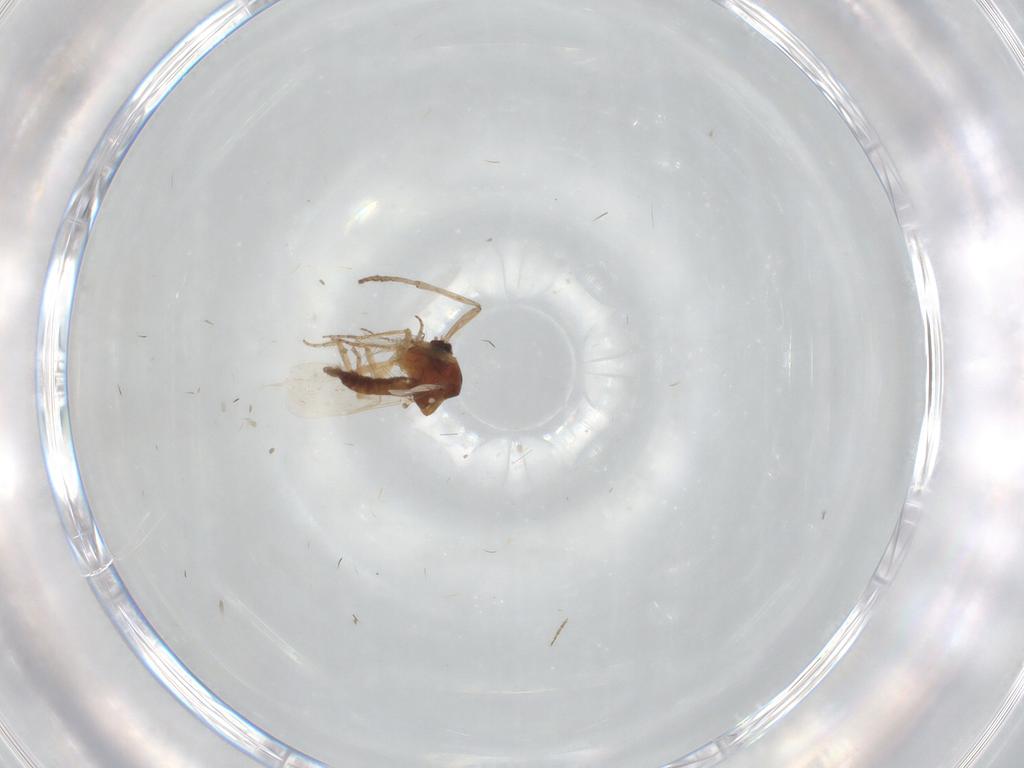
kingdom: Animalia
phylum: Arthropoda
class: Insecta
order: Diptera
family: Ceratopogonidae
